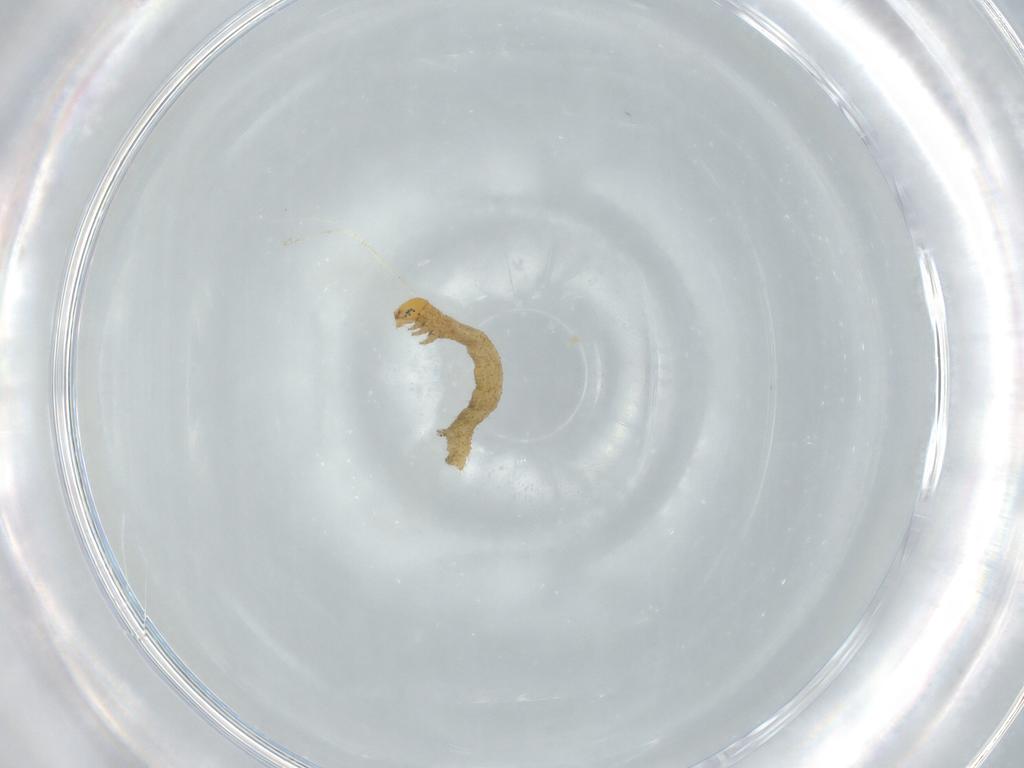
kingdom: Animalia
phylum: Arthropoda
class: Insecta
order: Lepidoptera
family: Geometridae
